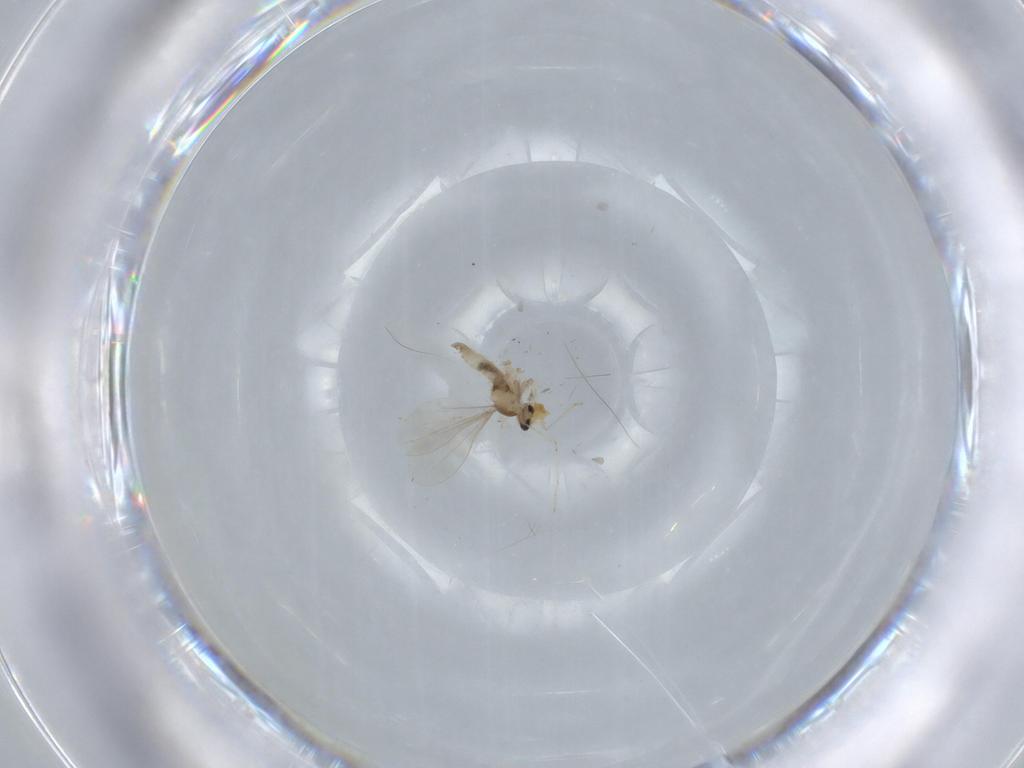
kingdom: Animalia
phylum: Arthropoda
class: Insecta
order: Diptera
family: Cecidomyiidae
